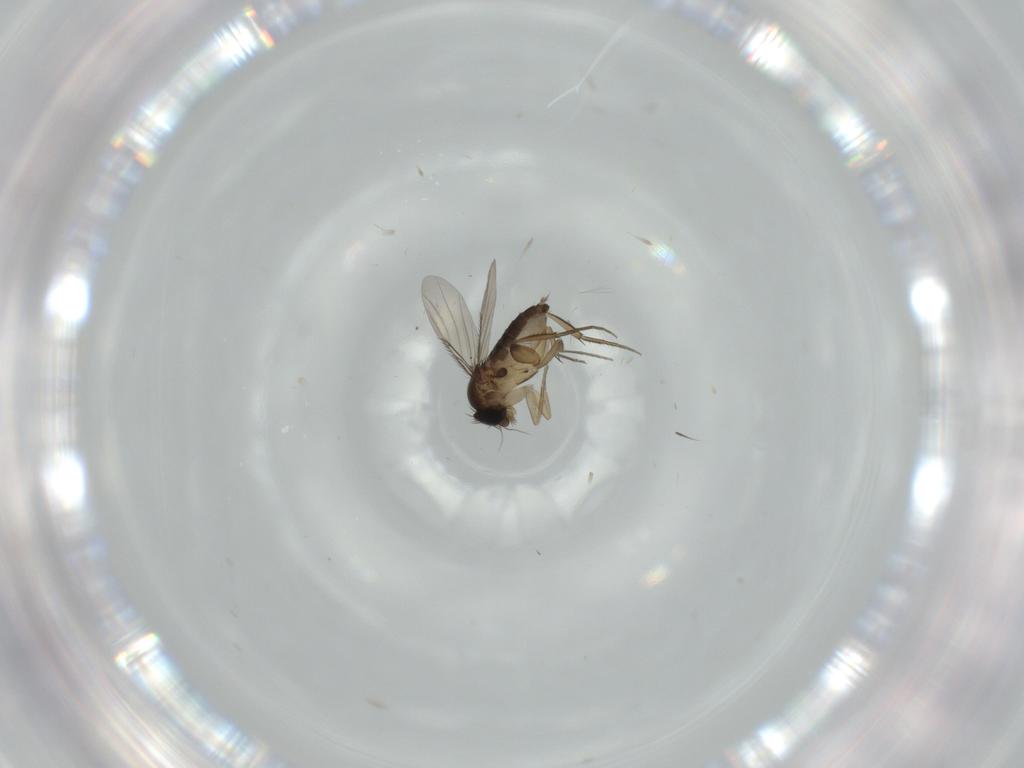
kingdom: Animalia
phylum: Arthropoda
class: Insecta
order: Diptera
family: Phoridae
